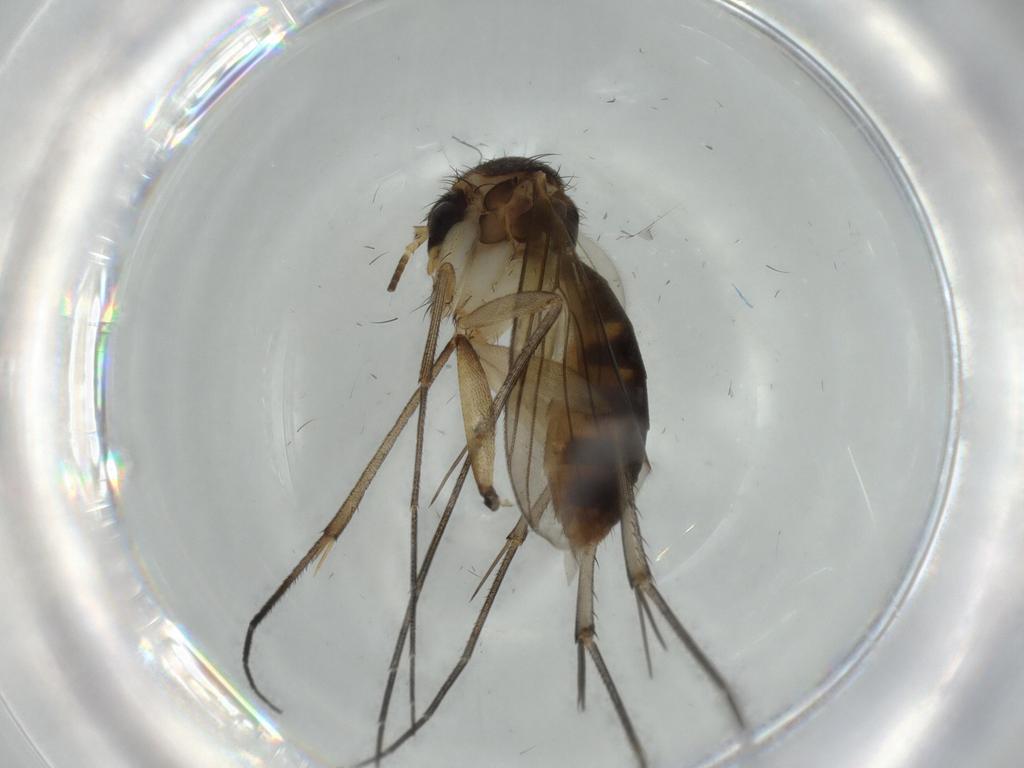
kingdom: Animalia
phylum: Arthropoda
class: Insecta
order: Diptera
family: Mycetophilidae
